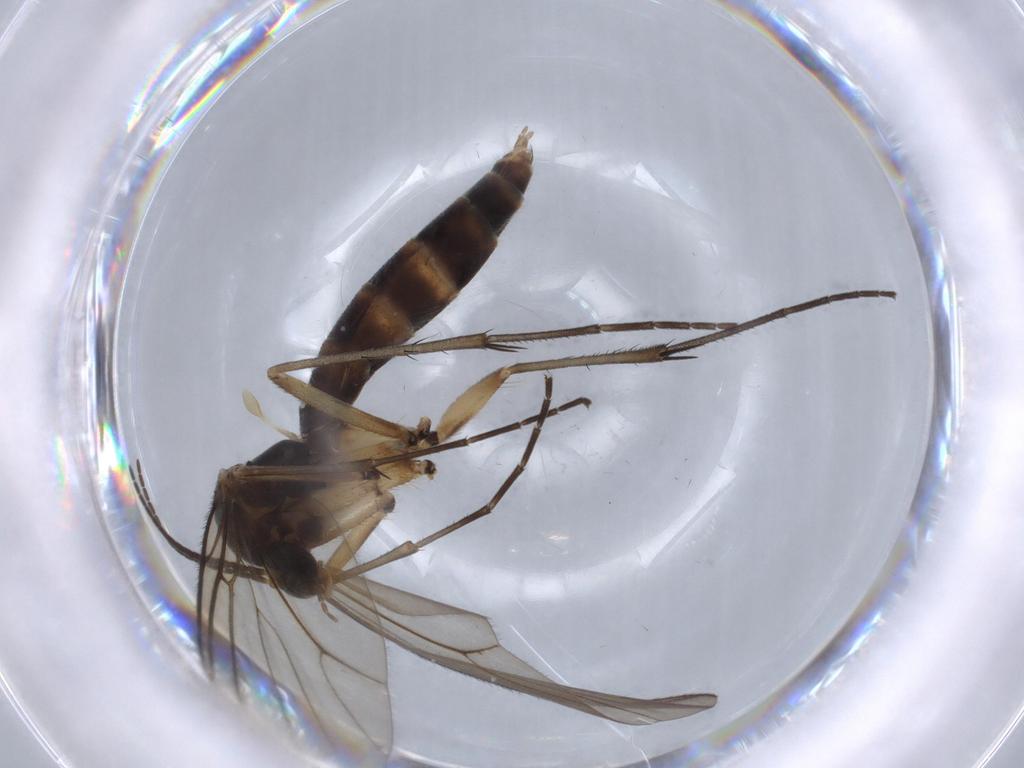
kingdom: Animalia
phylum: Arthropoda
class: Insecta
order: Diptera
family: Cecidomyiidae
